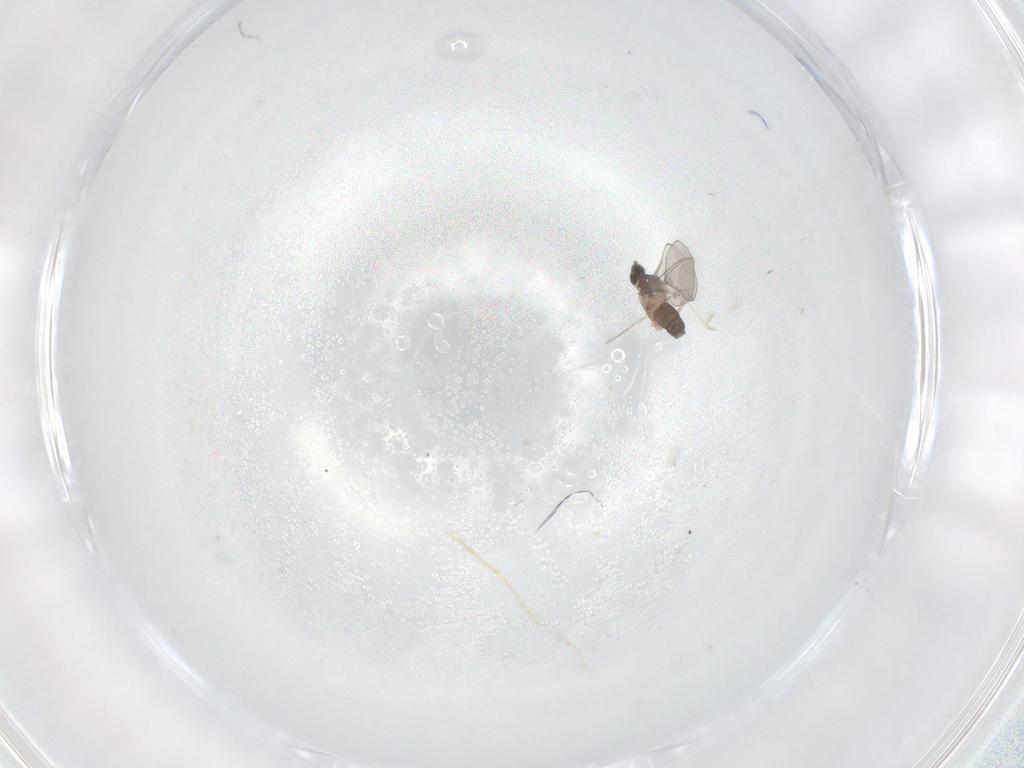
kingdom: Animalia
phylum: Arthropoda
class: Insecta
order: Diptera
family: Cecidomyiidae
